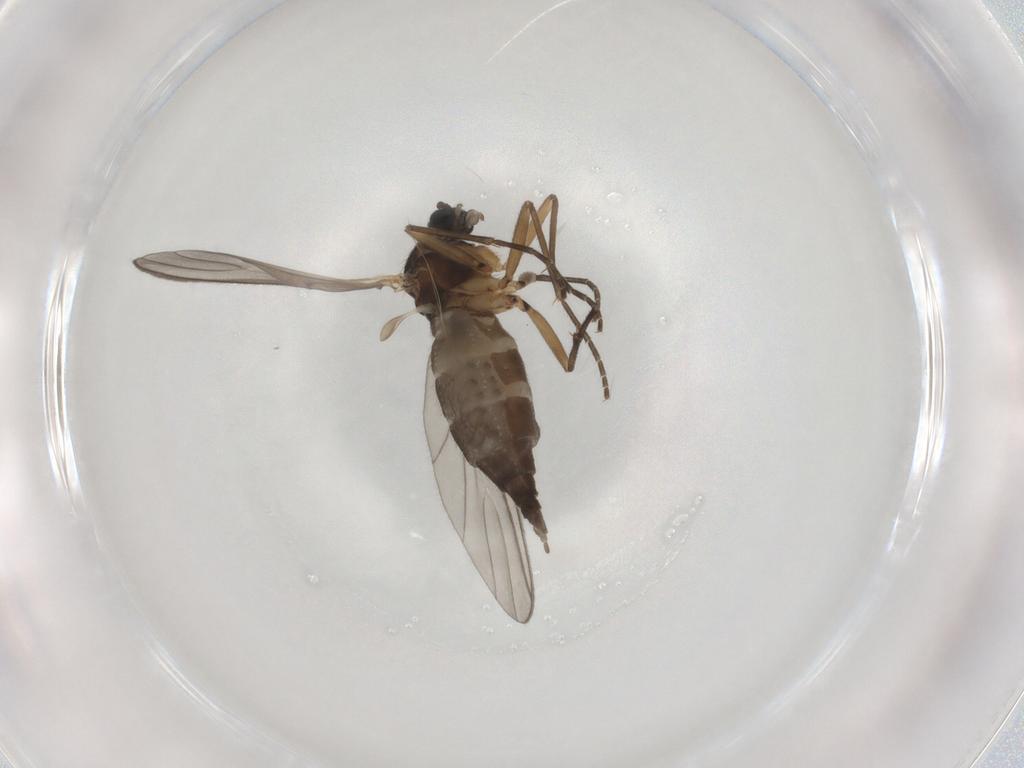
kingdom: Animalia
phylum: Arthropoda
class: Insecta
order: Diptera
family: Sciaridae
